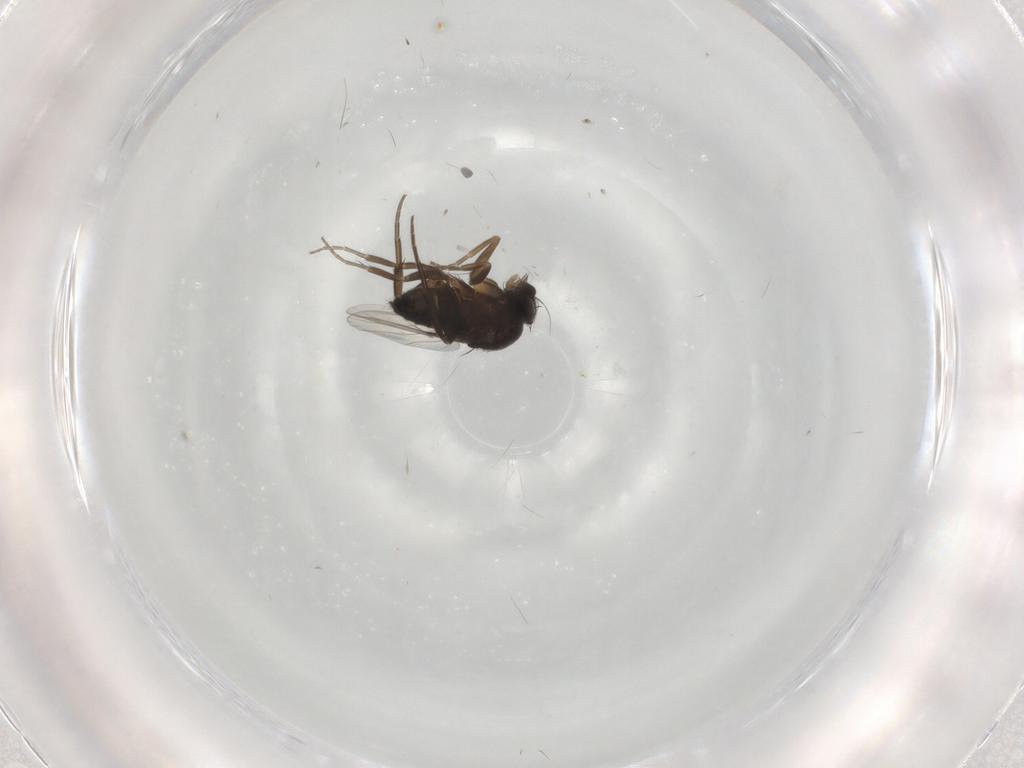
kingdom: Animalia
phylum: Arthropoda
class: Insecta
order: Diptera
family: Phoridae
